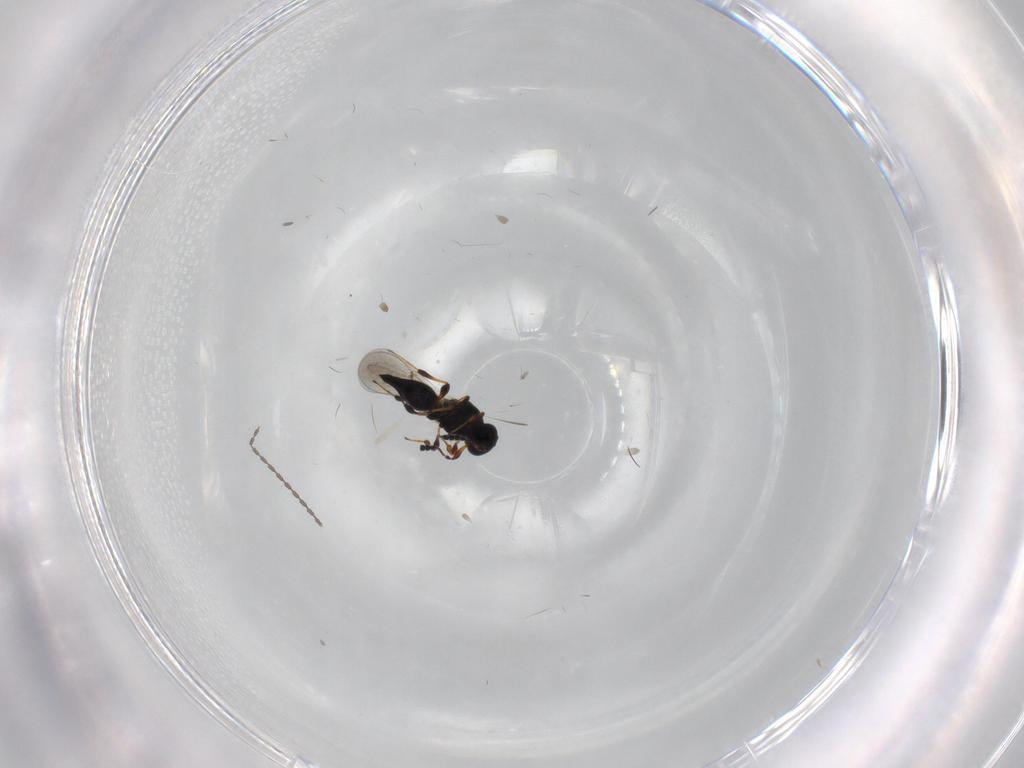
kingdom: Animalia
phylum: Arthropoda
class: Insecta
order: Hymenoptera
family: Platygastridae
